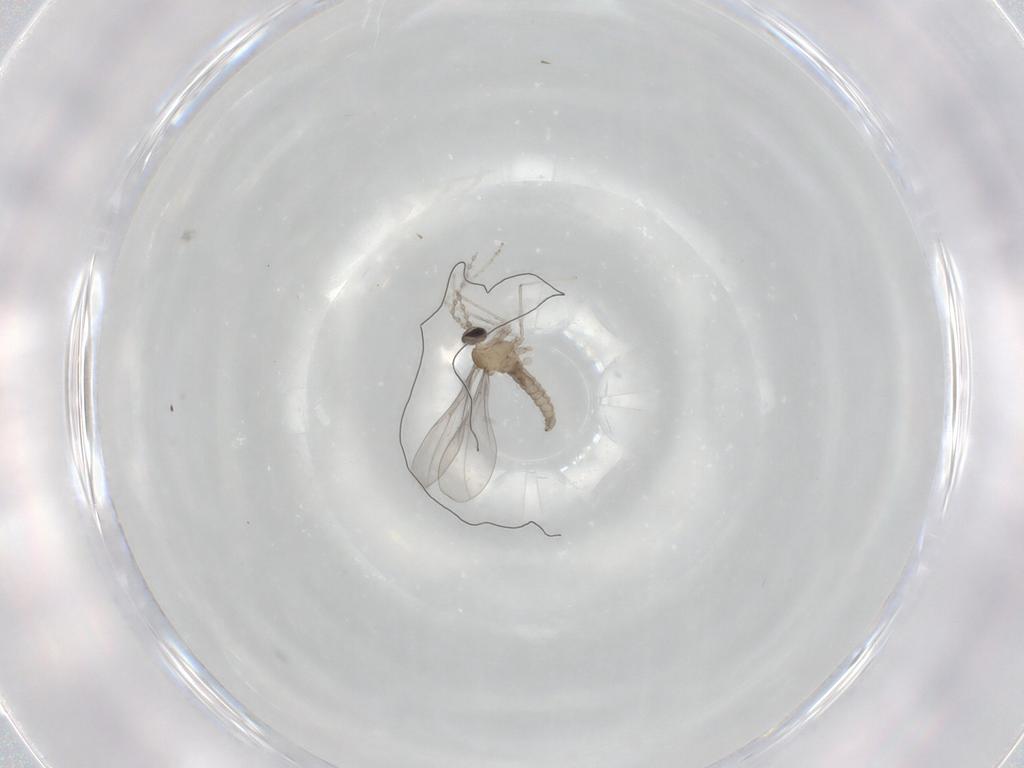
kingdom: Animalia
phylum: Arthropoda
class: Insecta
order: Diptera
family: Cecidomyiidae
